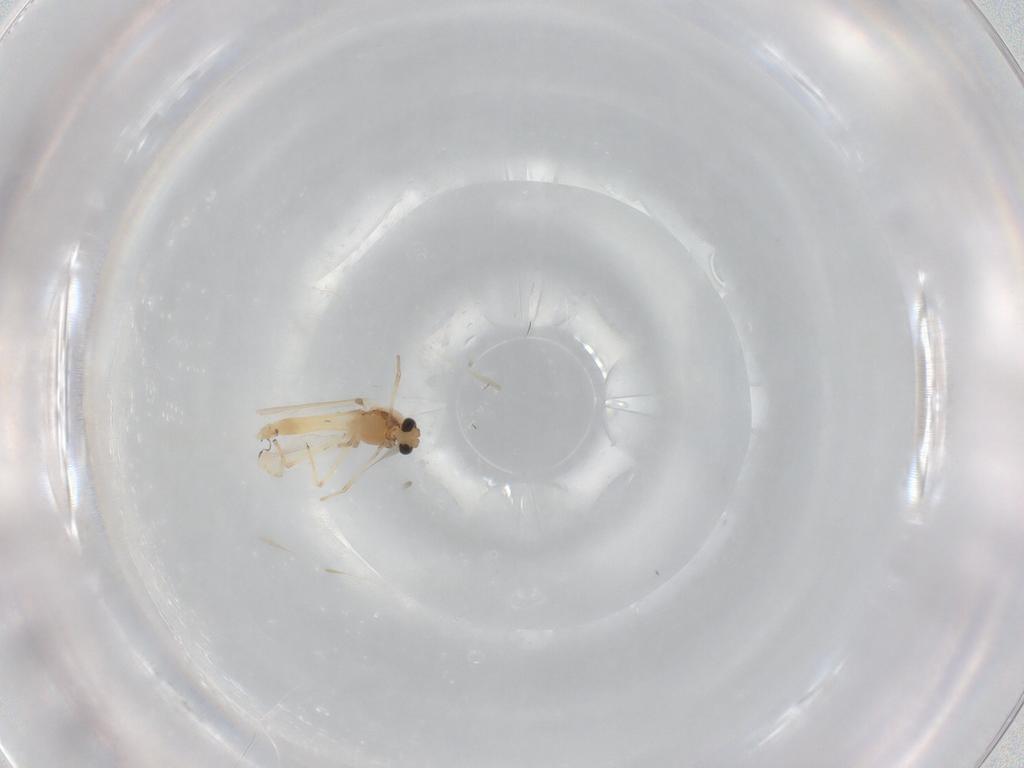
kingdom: Animalia
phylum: Arthropoda
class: Insecta
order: Diptera
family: Chironomidae
